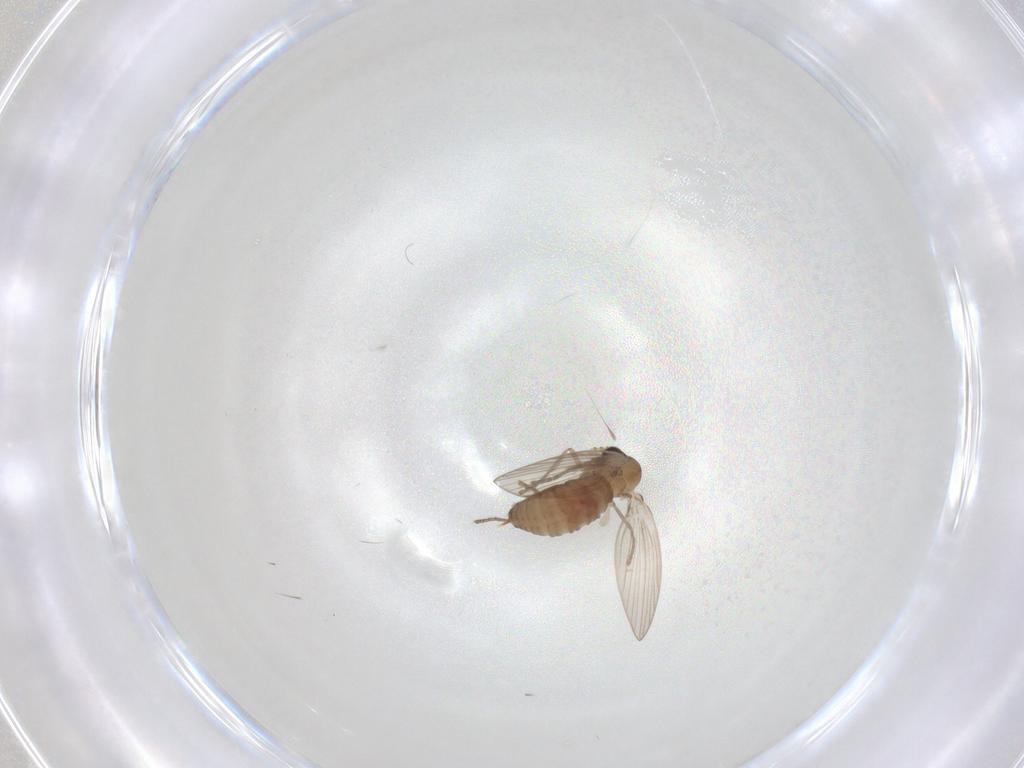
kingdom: Animalia
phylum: Arthropoda
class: Insecta
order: Diptera
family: Muscidae
